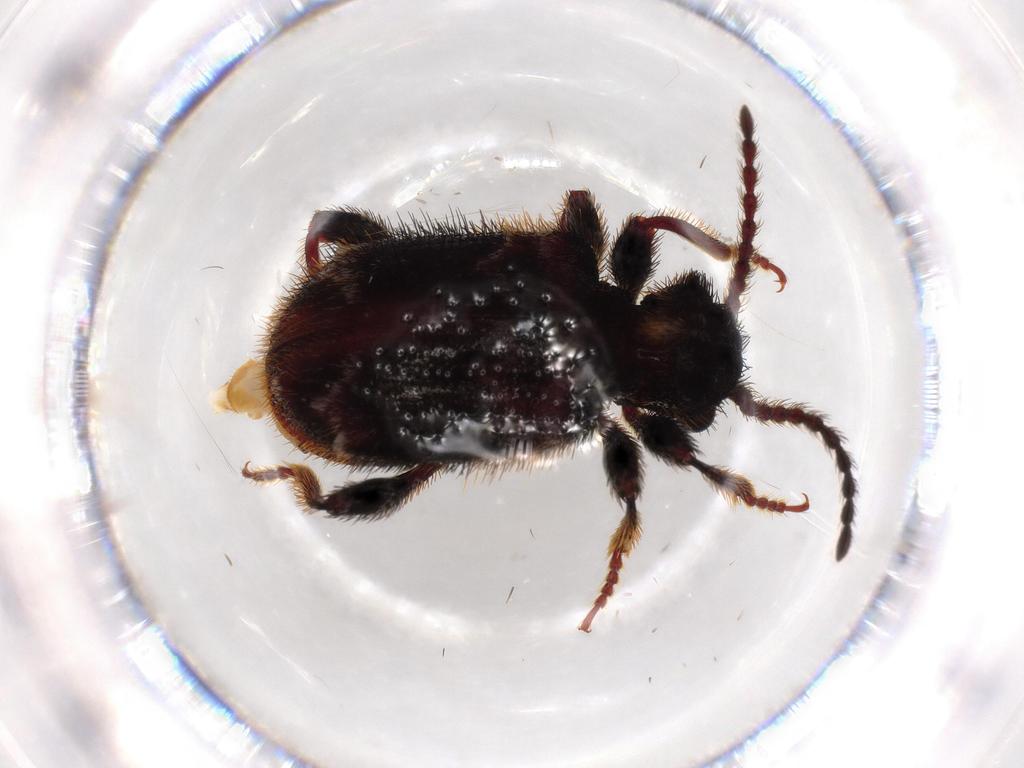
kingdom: Animalia
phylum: Arthropoda
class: Insecta
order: Coleoptera
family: Ptinidae
